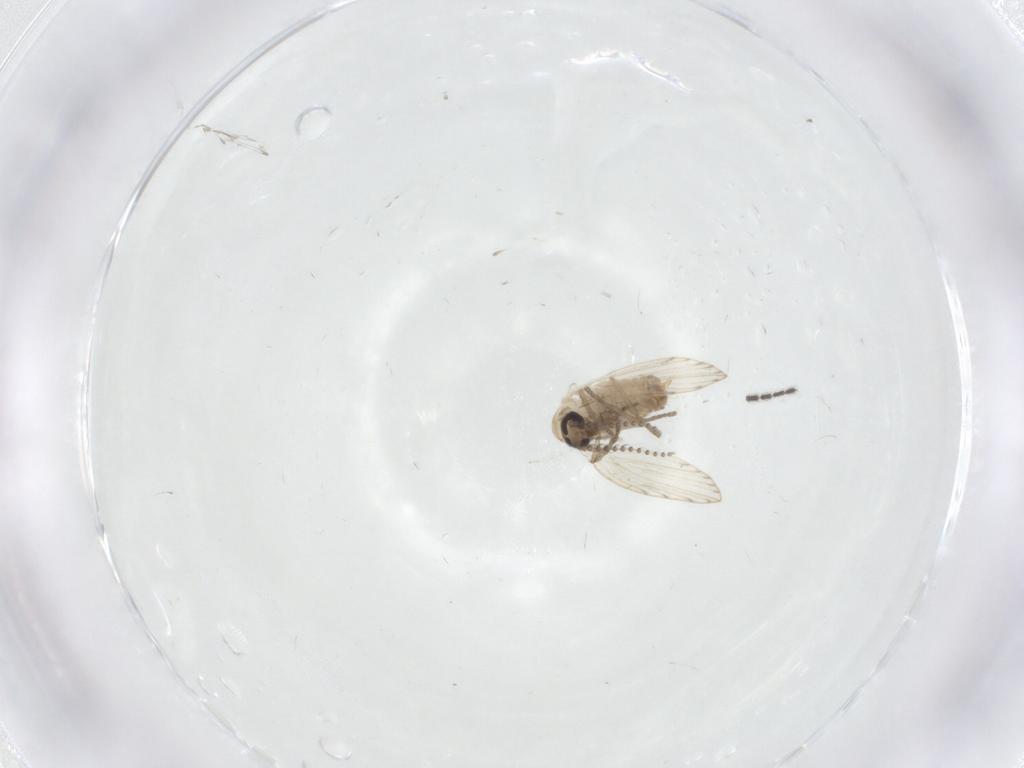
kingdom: Animalia
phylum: Arthropoda
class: Insecta
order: Diptera
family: Psychodidae
